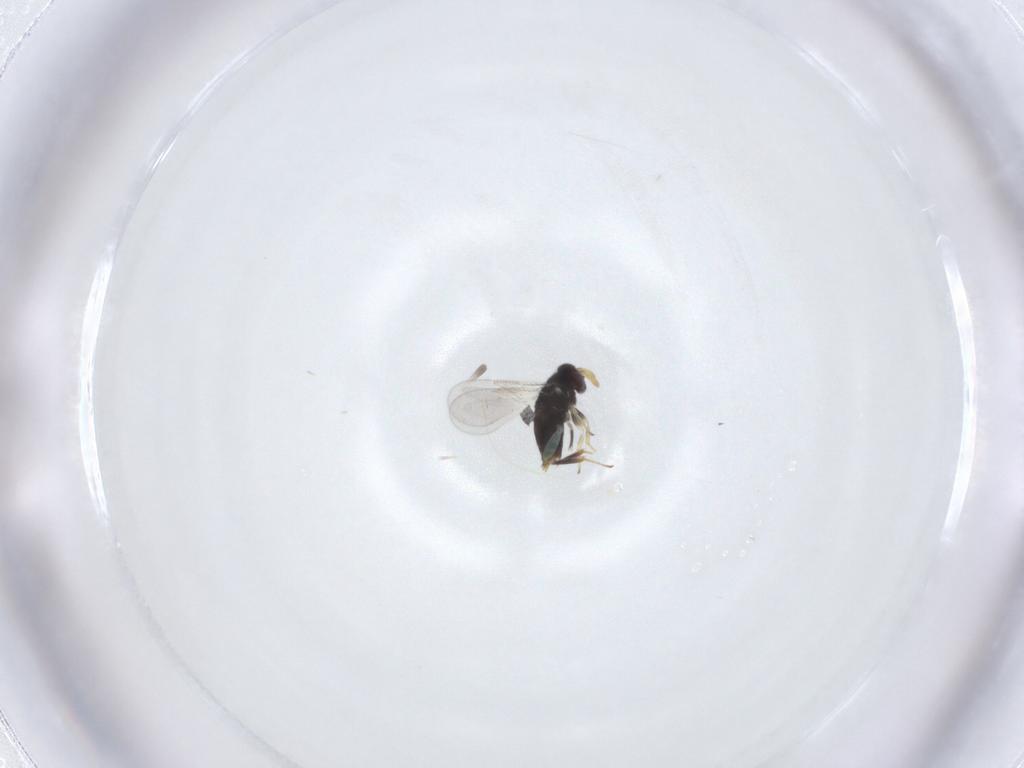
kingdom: Animalia
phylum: Arthropoda
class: Insecta
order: Hymenoptera
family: Aphelinidae
